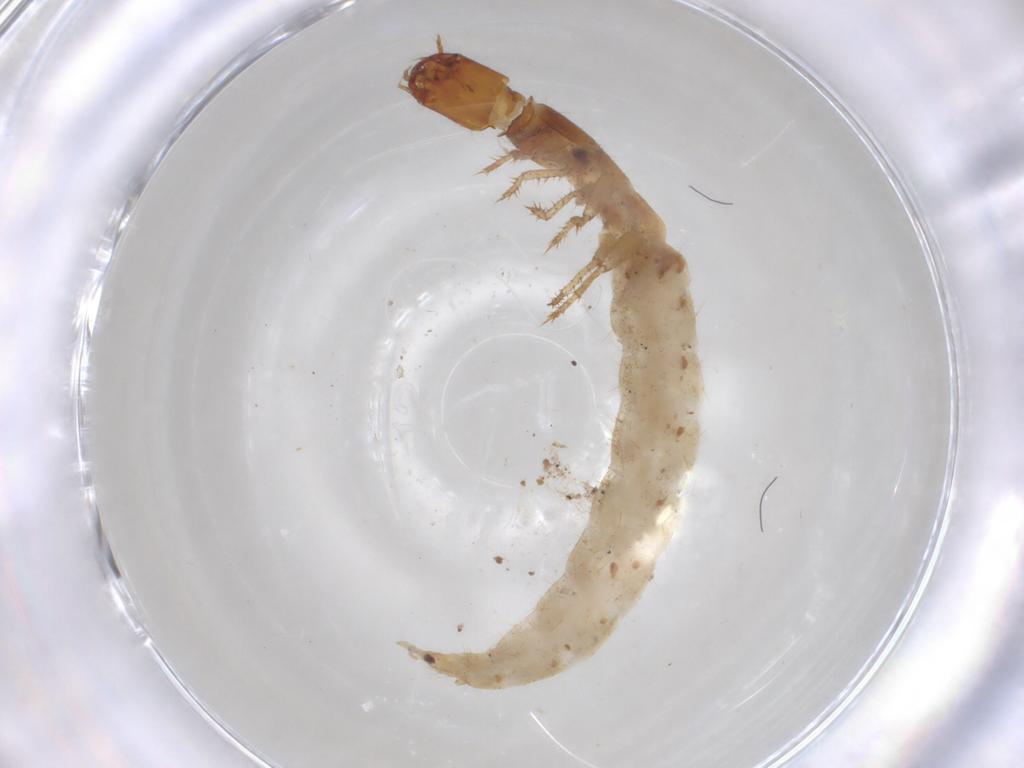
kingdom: Animalia
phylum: Arthropoda
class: Insecta
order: Coleoptera
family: Staphylinidae
